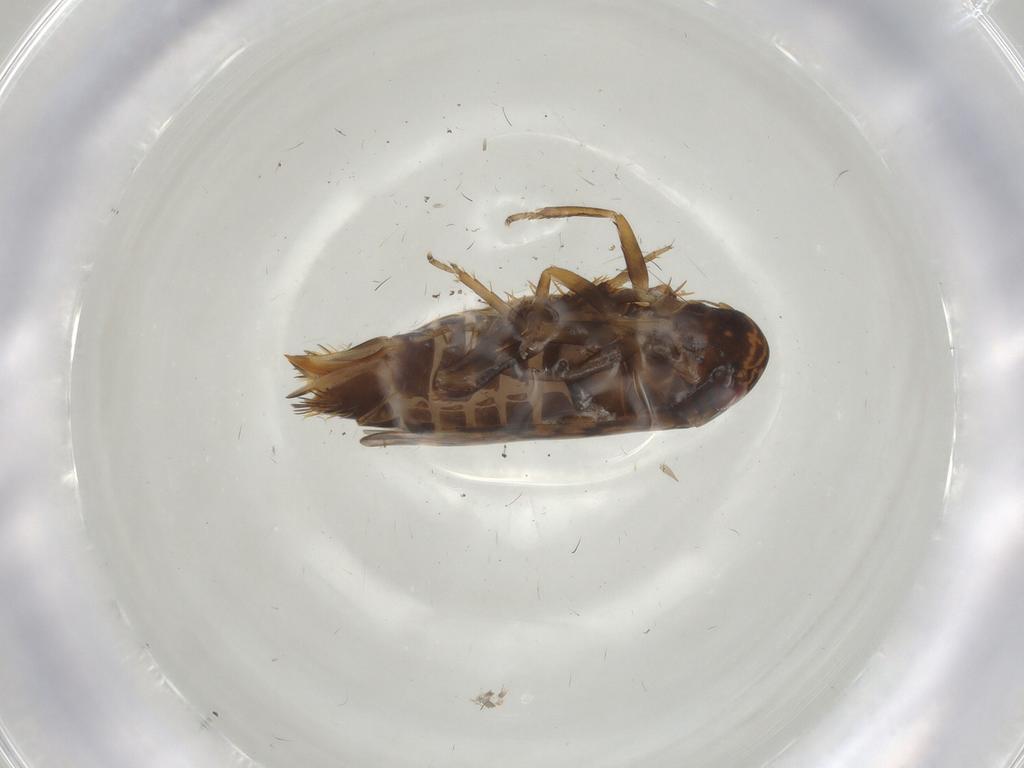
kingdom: Animalia
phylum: Arthropoda
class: Insecta
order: Hemiptera
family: Cicadellidae
